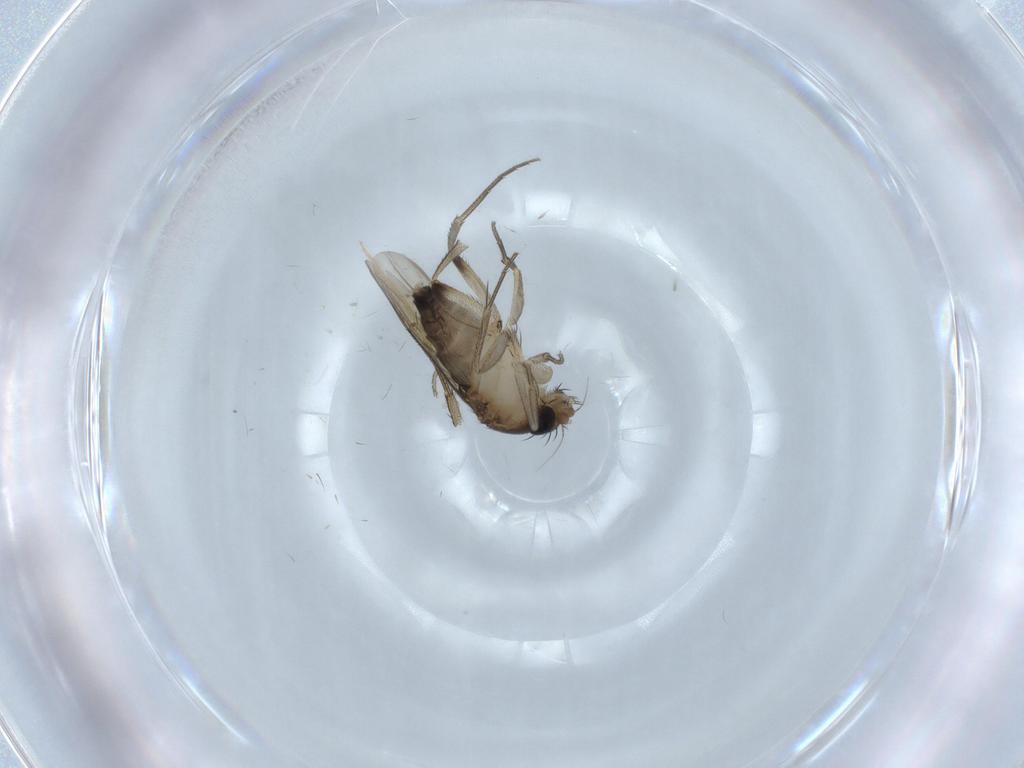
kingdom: Animalia
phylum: Arthropoda
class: Insecta
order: Diptera
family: Phoridae
